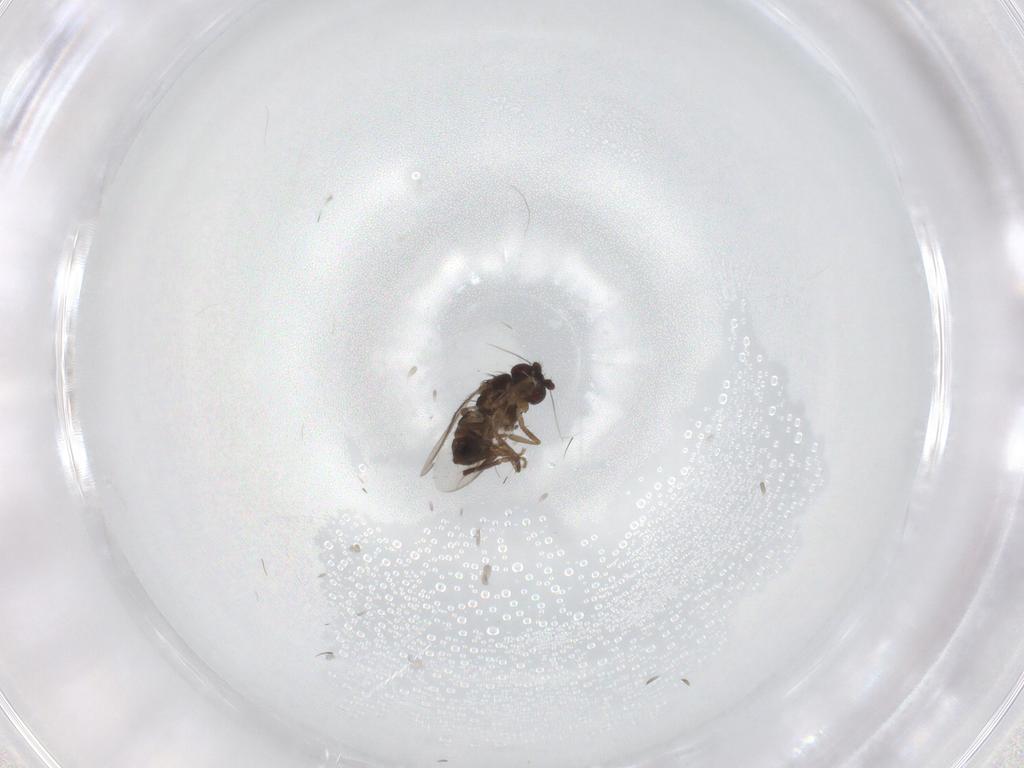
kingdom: Animalia
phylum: Arthropoda
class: Insecta
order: Diptera
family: Sphaeroceridae
